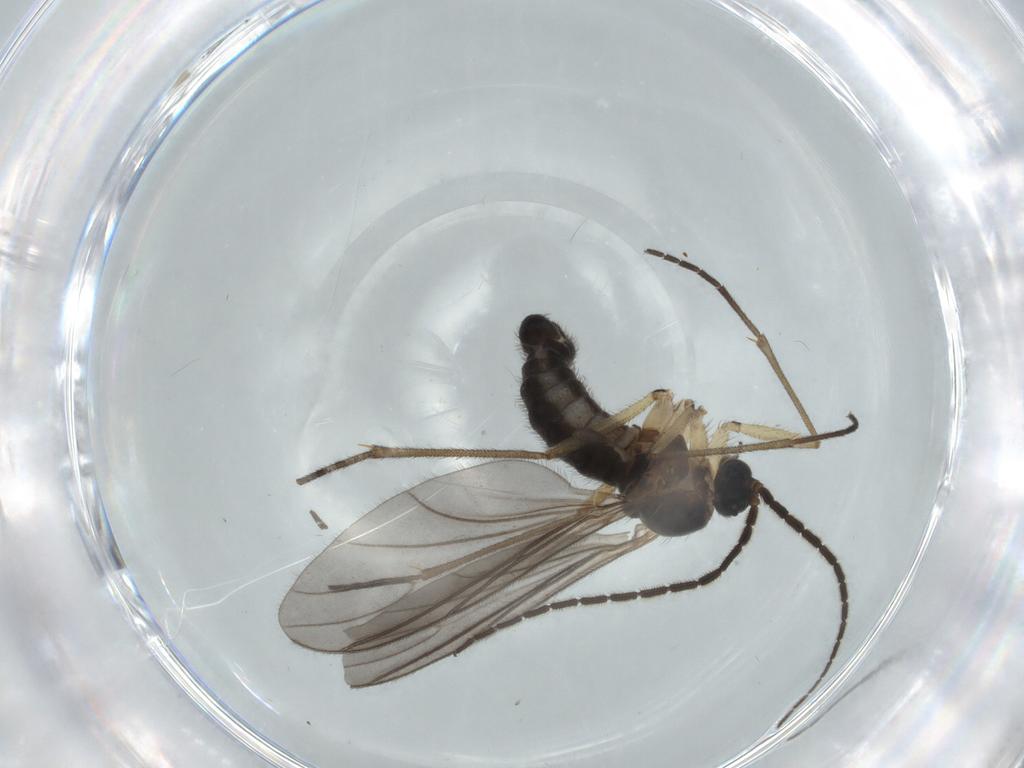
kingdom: Animalia
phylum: Arthropoda
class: Insecta
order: Diptera
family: Sciaridae
